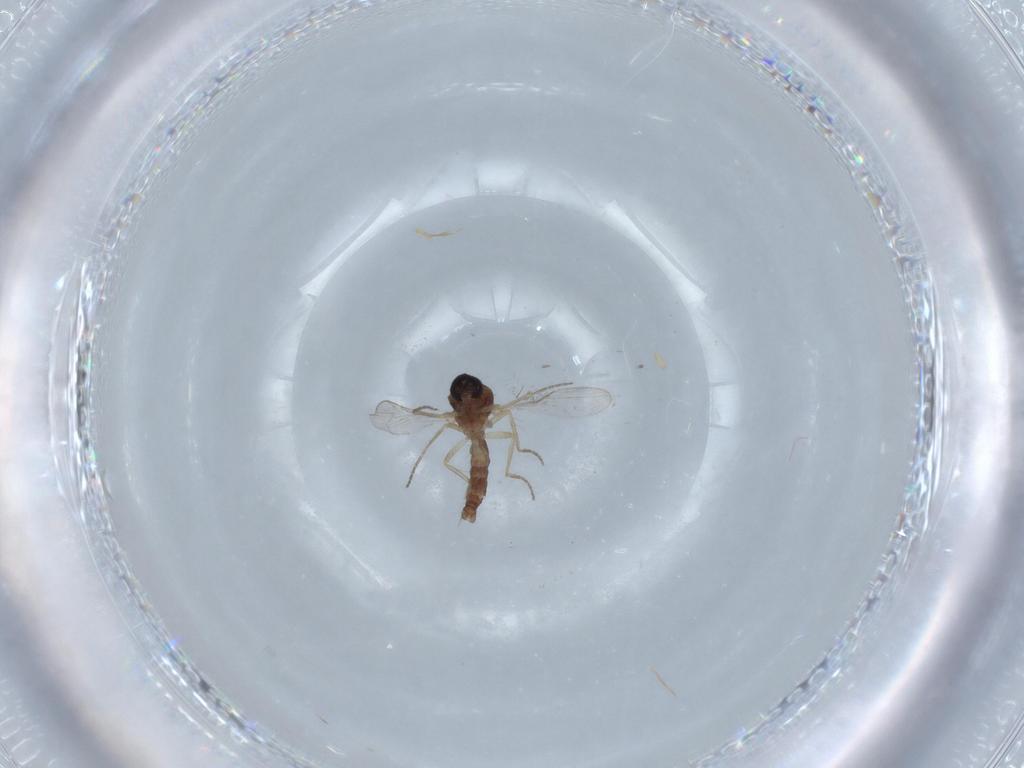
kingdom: Animalia
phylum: Arthropoda
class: Insecta
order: Diptera
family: Ceratopogonidae
